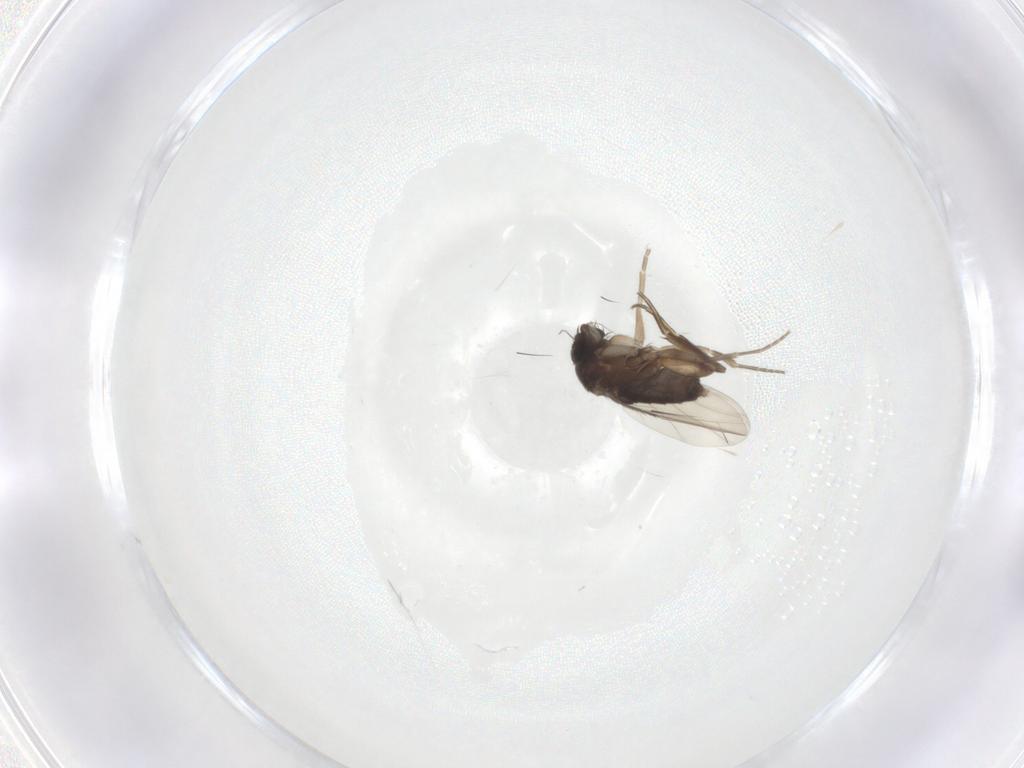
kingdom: Animalia
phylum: Arthropoda
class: Insecta
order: Diptera
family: Phoridae
